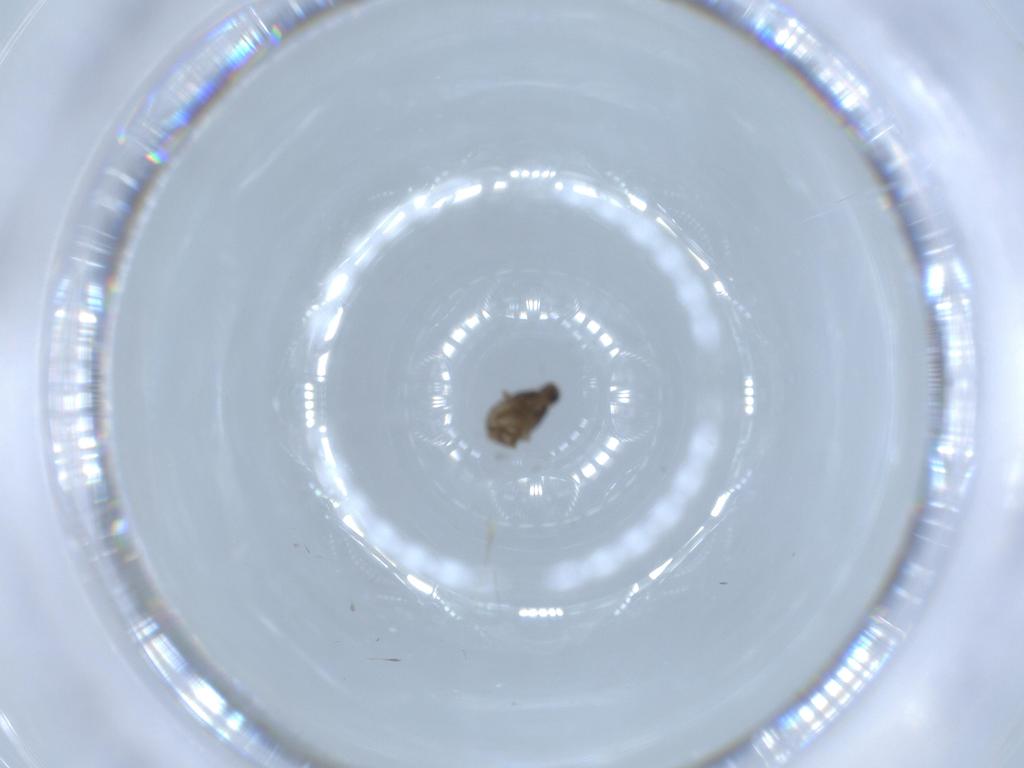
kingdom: Animalia
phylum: Arthropoda
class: Insecta
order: Diptera
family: Phoridae
